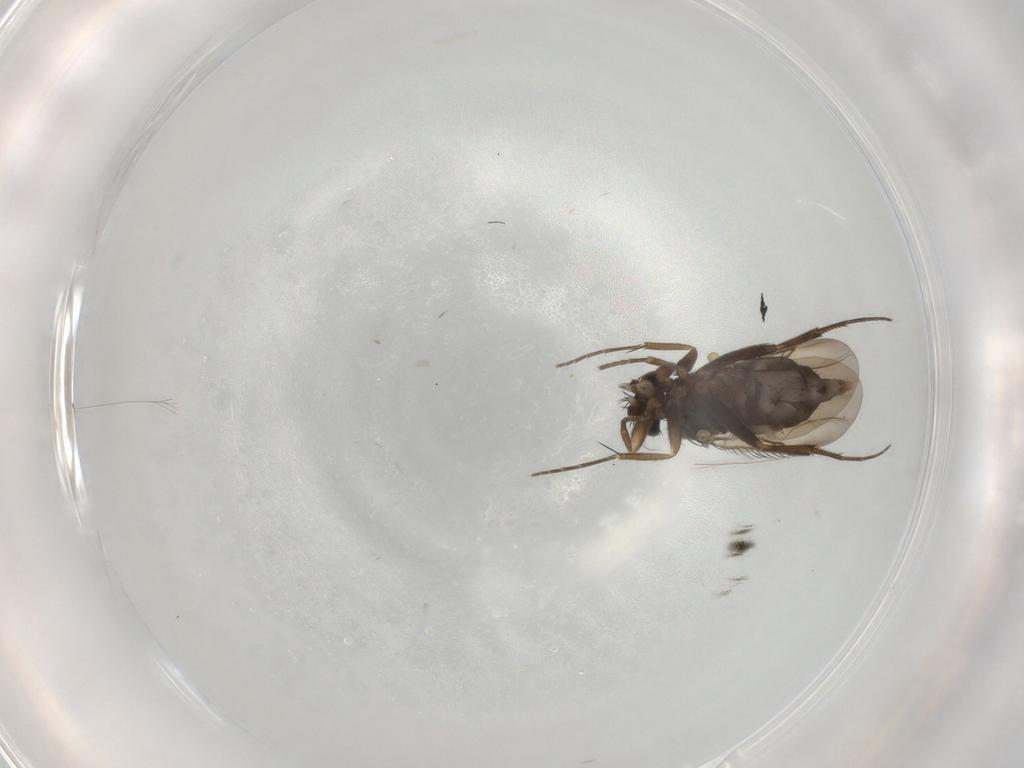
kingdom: Animalia
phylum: Arthropoda
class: Insecta
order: Diptera
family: Phoridae
